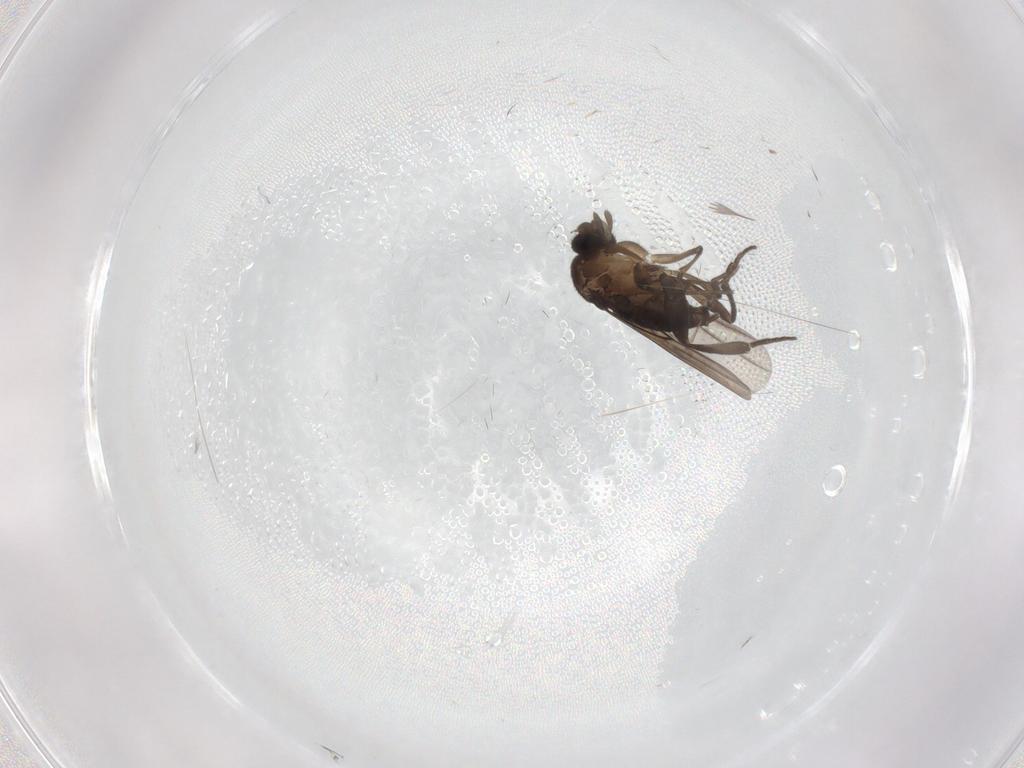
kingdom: Animalia
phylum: Arthropoda
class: Insecta
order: Diptera
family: Phoridae
